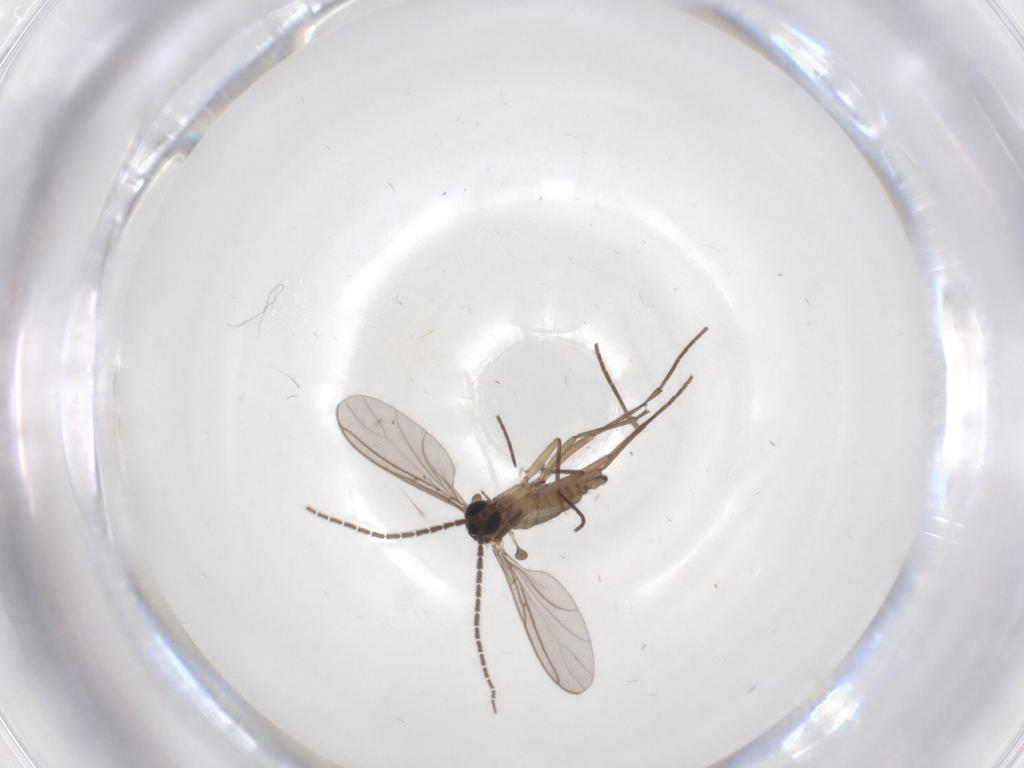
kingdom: Animalia
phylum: Arthropoda
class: Insecta
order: Diptera
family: Sciaridae
